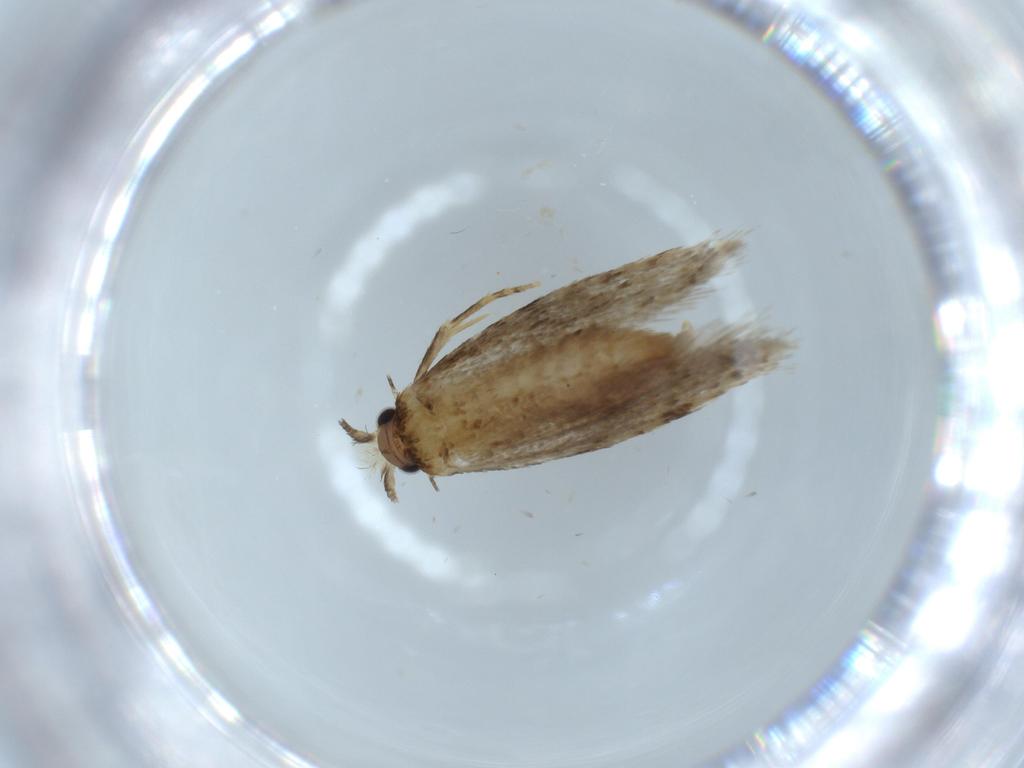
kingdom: Animalia
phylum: Arthropoda
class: Insecta
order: Lepidoptera
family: Tineidae
